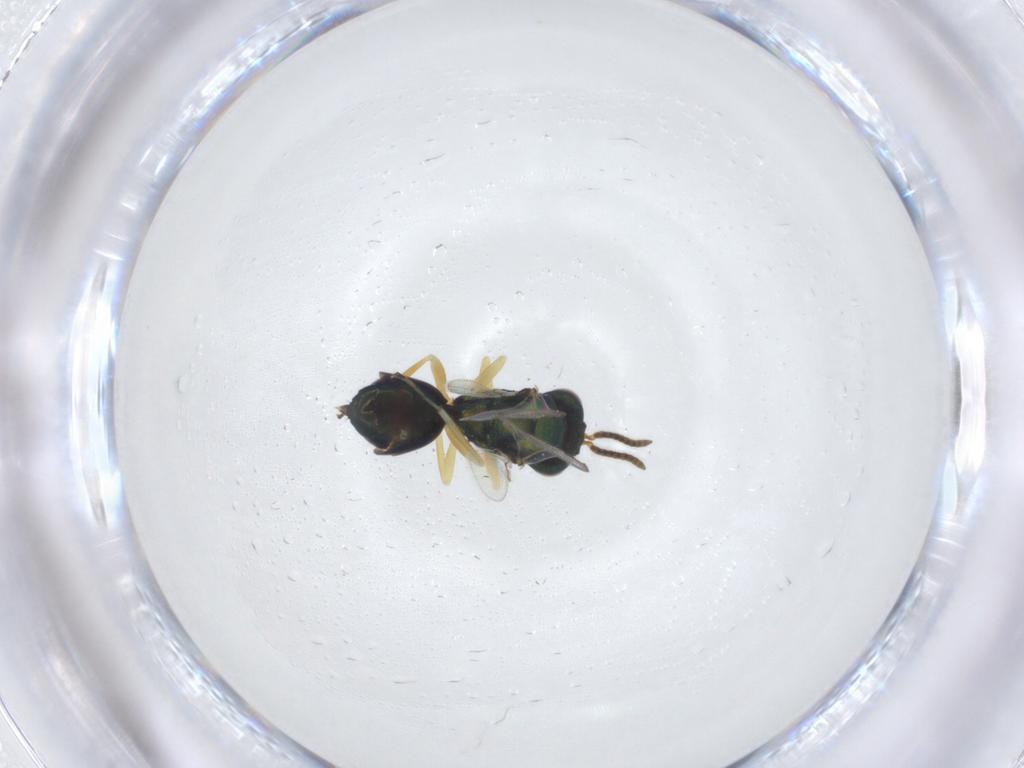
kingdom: Animalia
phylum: Arthropoda
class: Insecta
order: Hymenoptera
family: Pteromalidae
